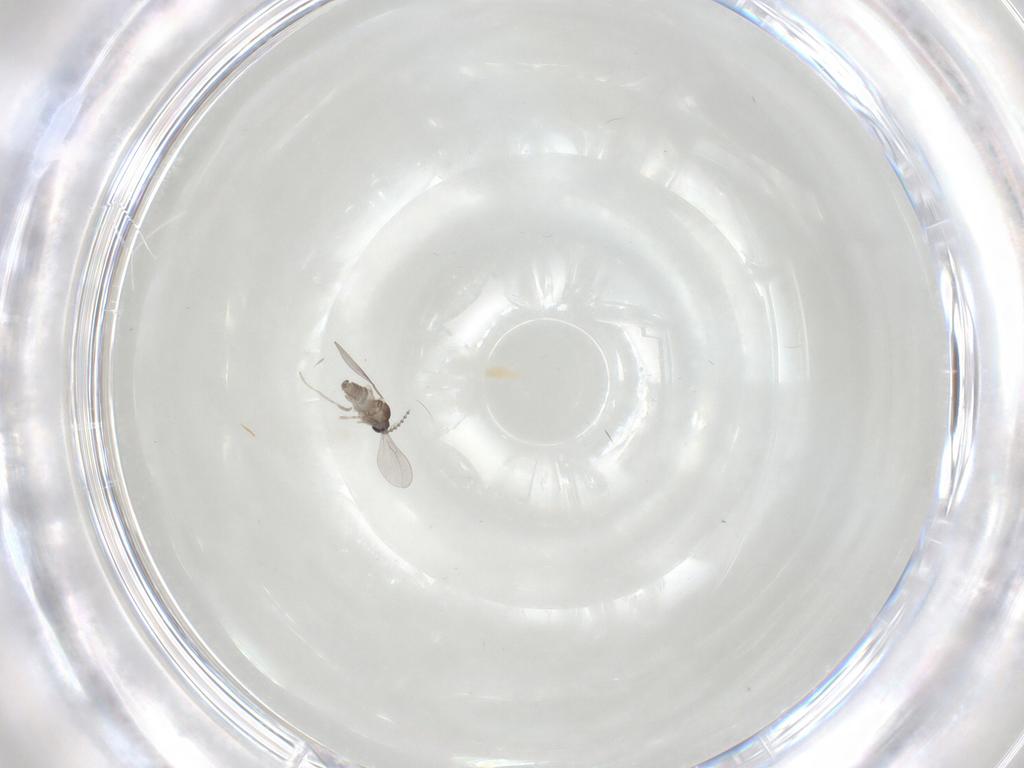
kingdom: Animalia
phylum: Arthropoda
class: Insecta
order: Diptera
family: Cecidomyiidae
